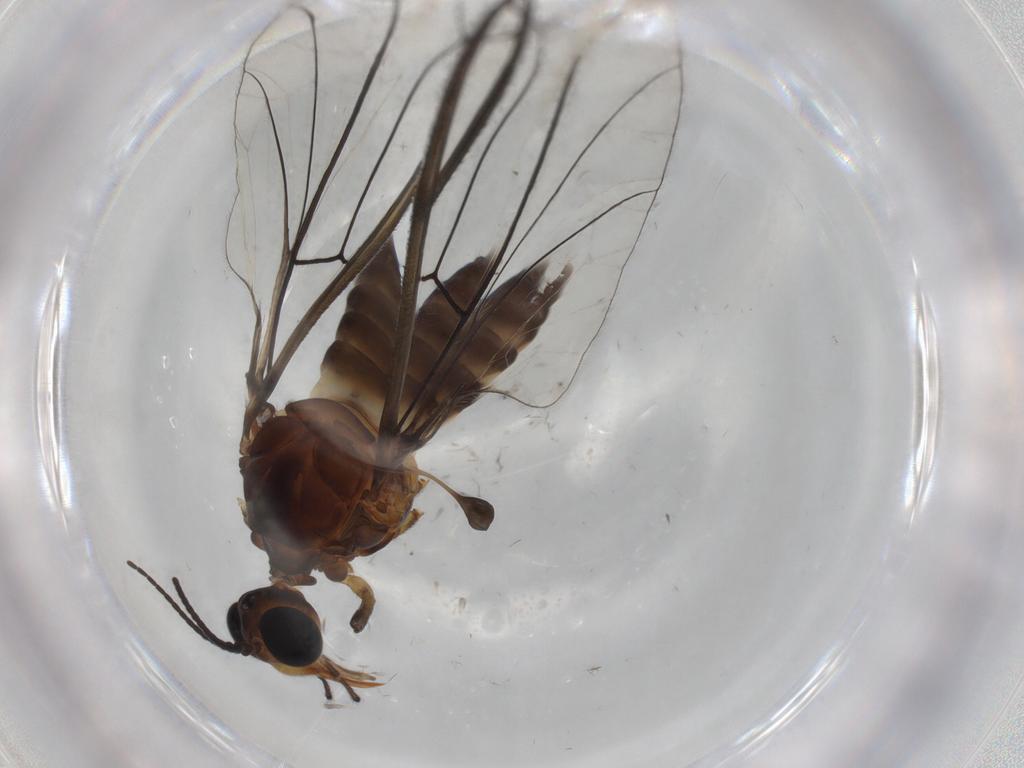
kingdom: Animalia
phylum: Arthropoda
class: Insecta
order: Diptera
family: Blephariceridae
